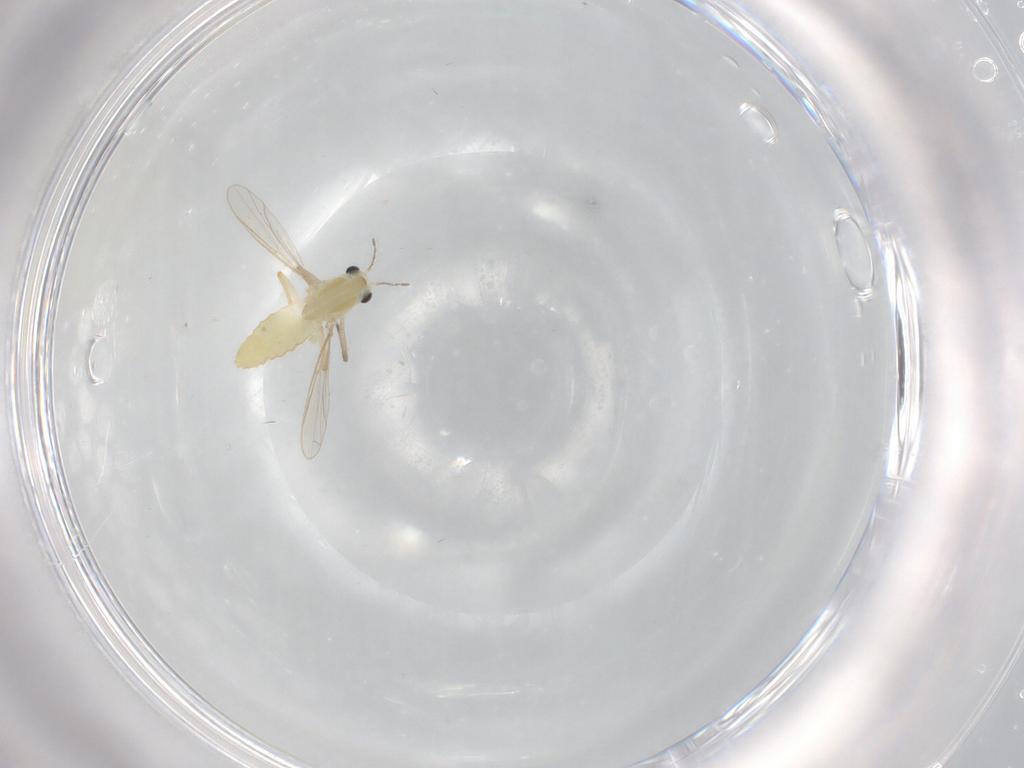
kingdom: Animalia
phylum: Arthropoda
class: Insecta
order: Diptera
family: Chironomidae
